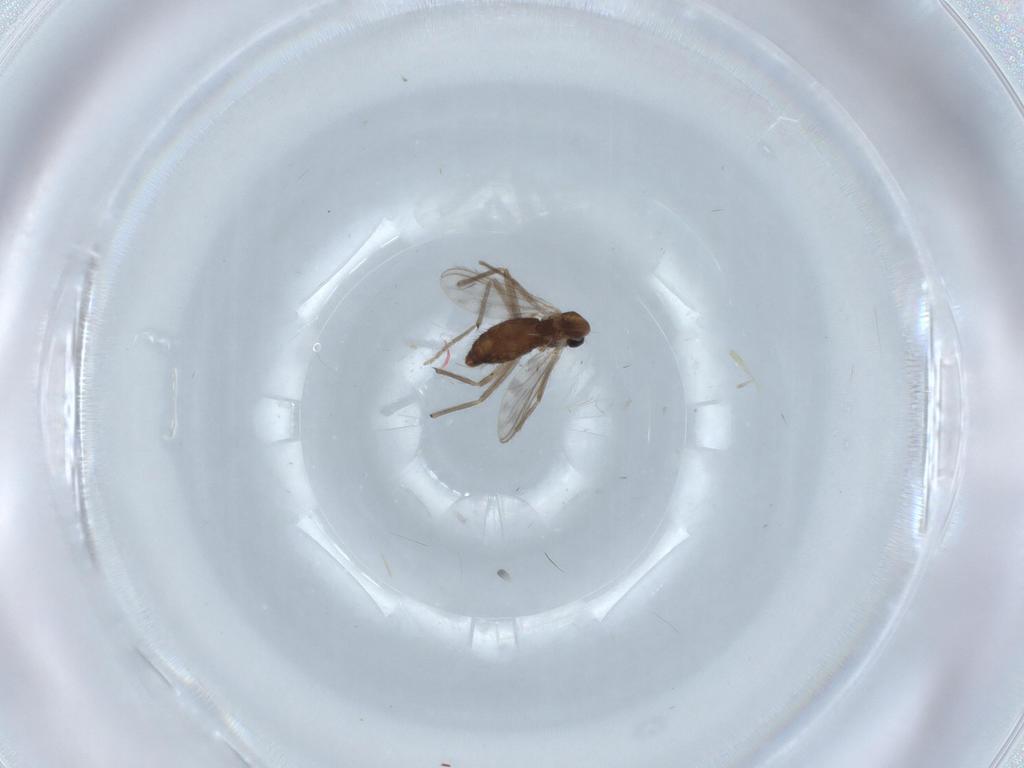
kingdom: Animalia
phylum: Arthropoda
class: Insecta
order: Diptera
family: Chironomidae
